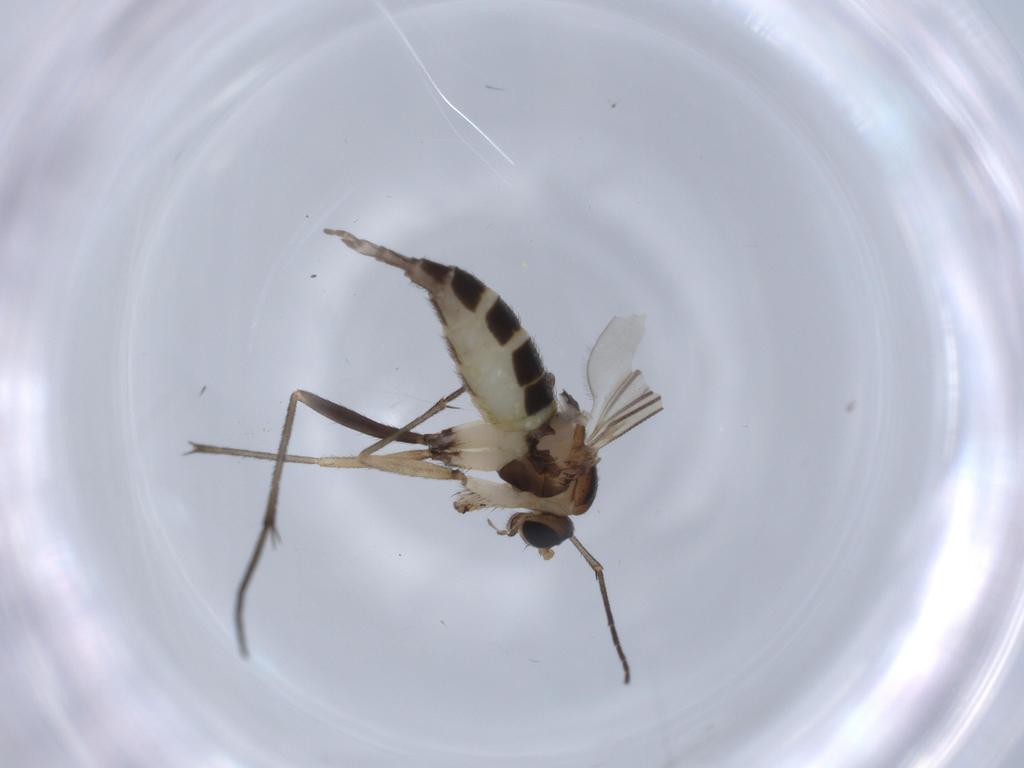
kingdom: Animalia
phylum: Arthropoda
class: Insecta
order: Diptera
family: Sciaridae
